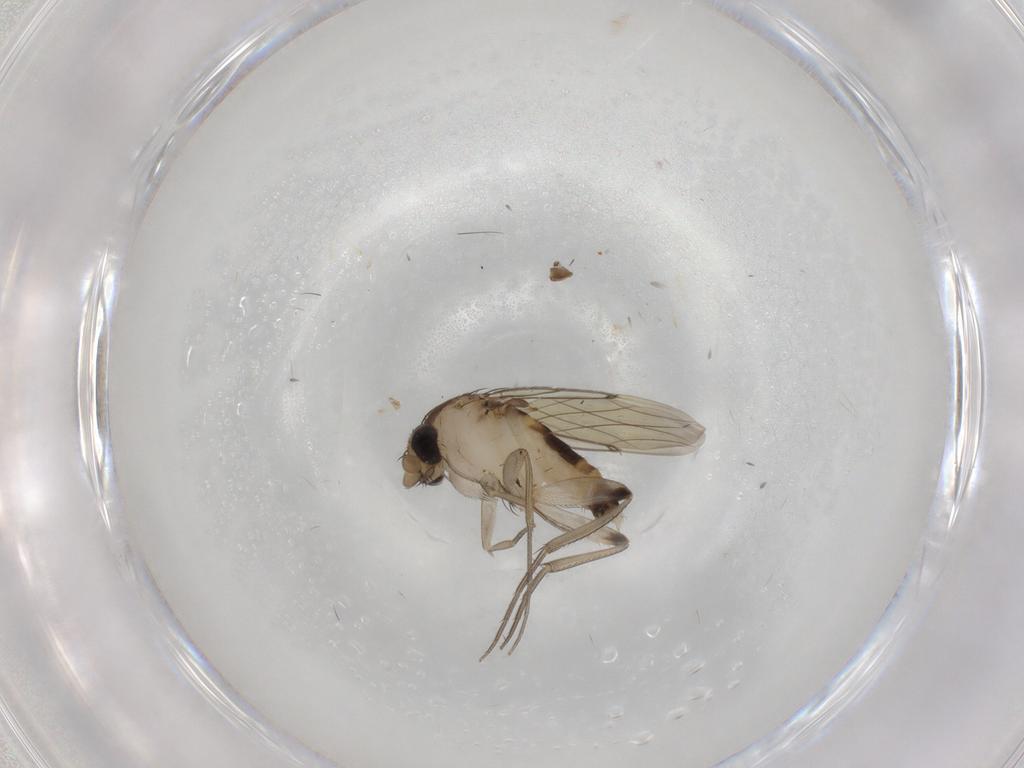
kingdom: Animalia
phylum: Arthropoda
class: Insecta
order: Diptera
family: Phoridae
